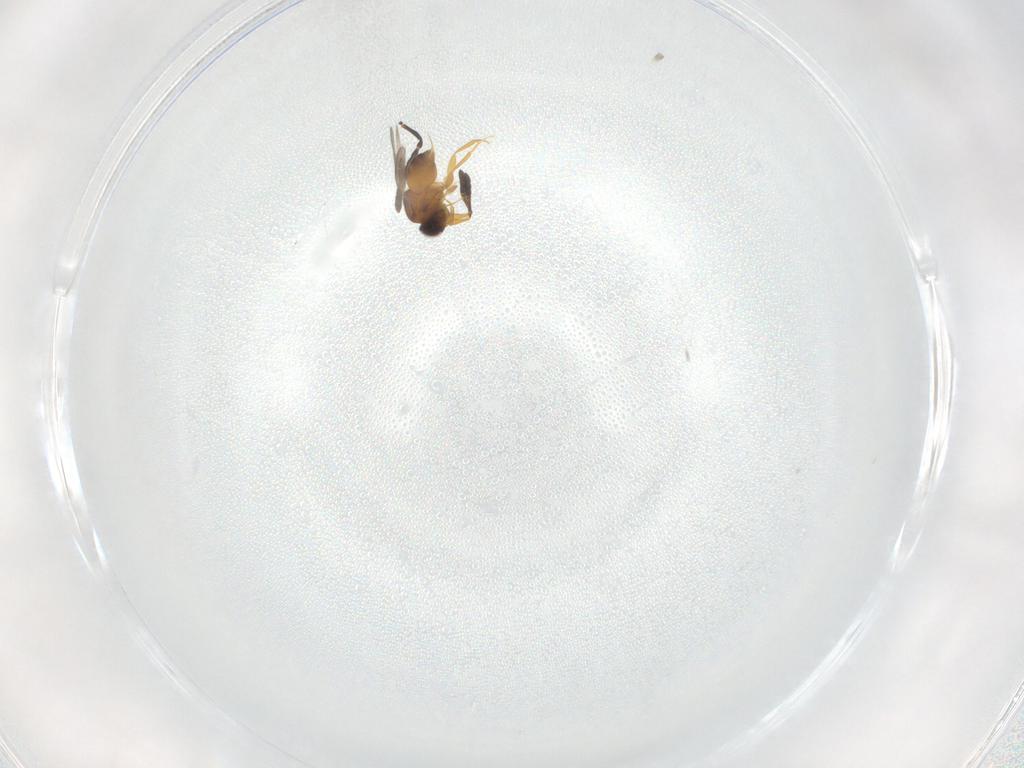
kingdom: Animalia
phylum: Arthropoda
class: Insecta
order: Hymenoptera
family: Ceraphronidae
